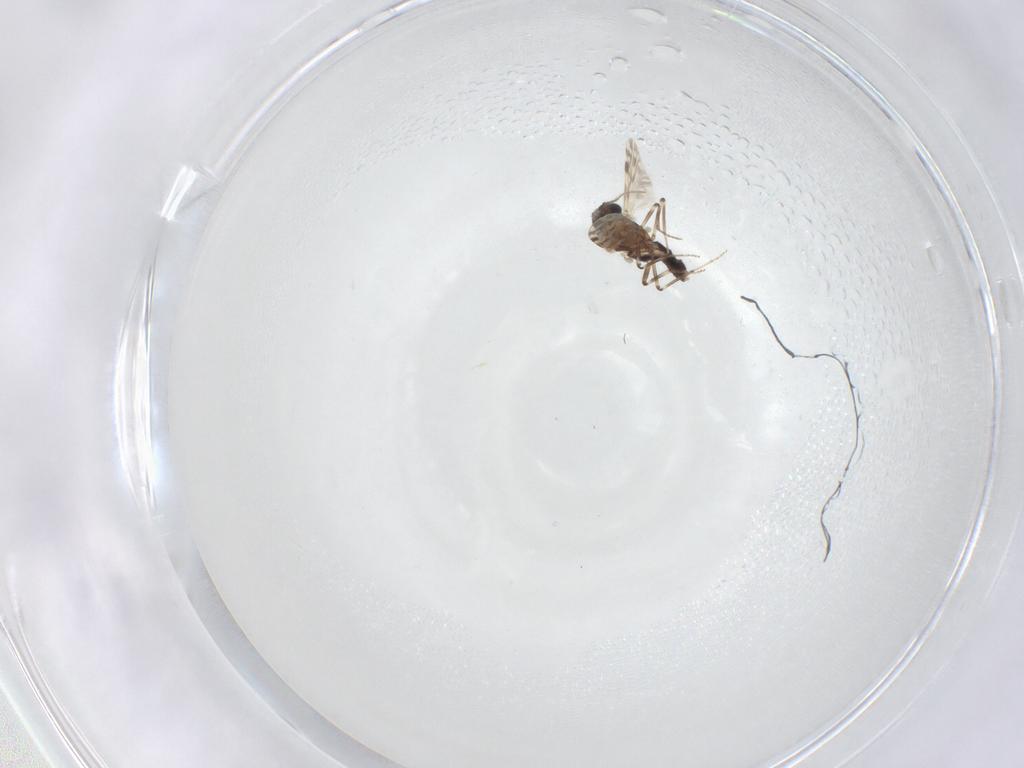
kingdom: Animalia
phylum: Arthropoda
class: Insecta
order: Diptera
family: Ceratopogonidae
